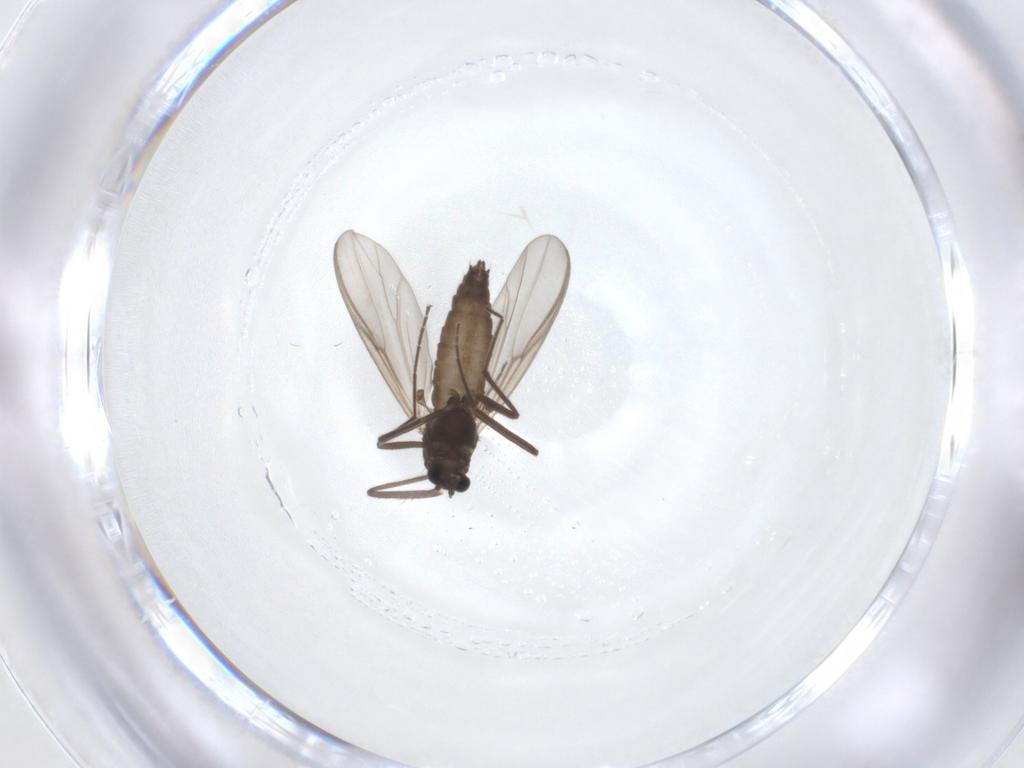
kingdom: Animalia
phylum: Arthropoda
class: Insecta
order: Diptera
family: Chironomidae
